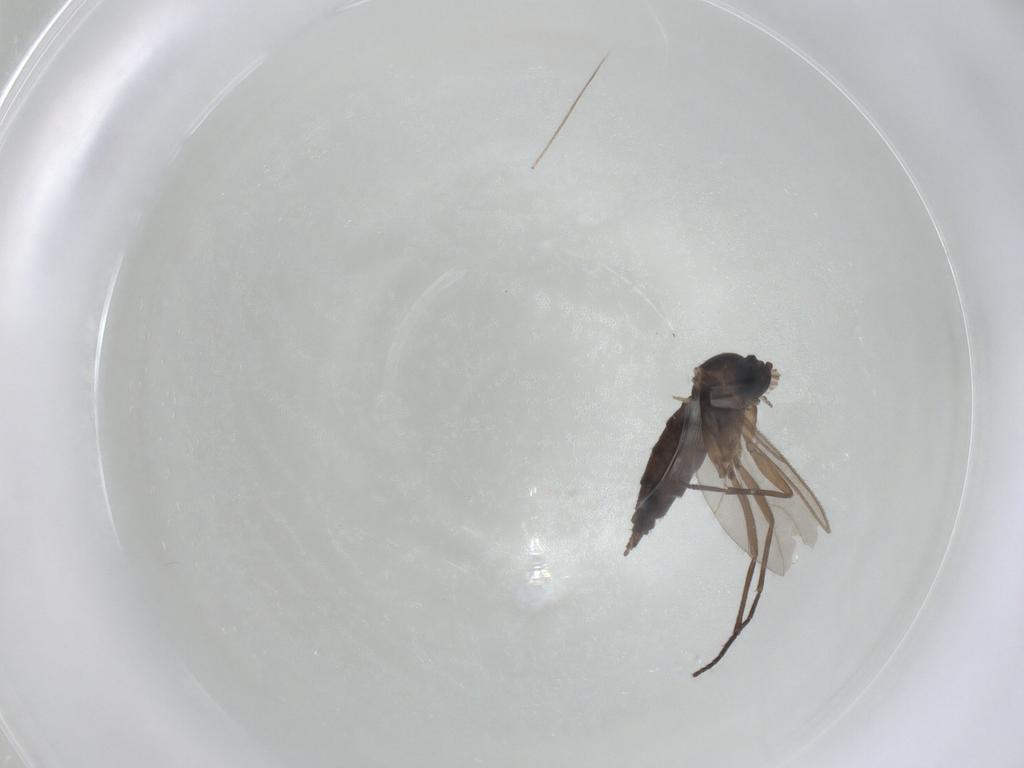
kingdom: Animalia
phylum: Arthropoda
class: Insecta
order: Diptera
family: Sciaridae
